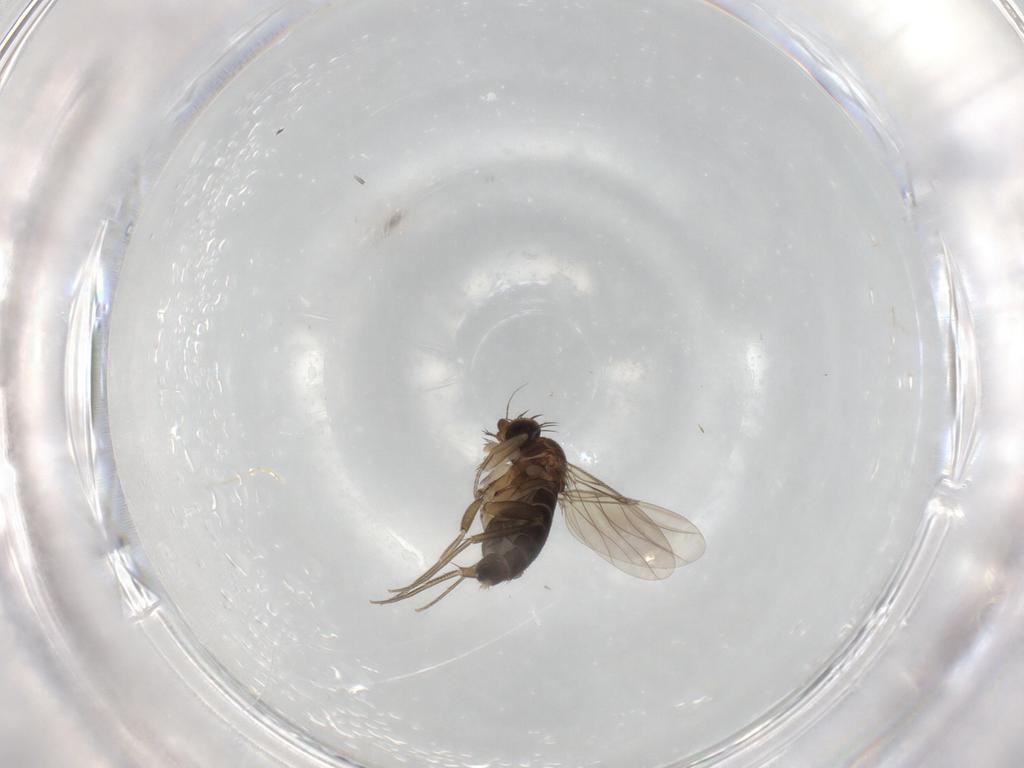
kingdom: Animalia
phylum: Arthropoda
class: Insecta
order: Diptera
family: Phoridae
